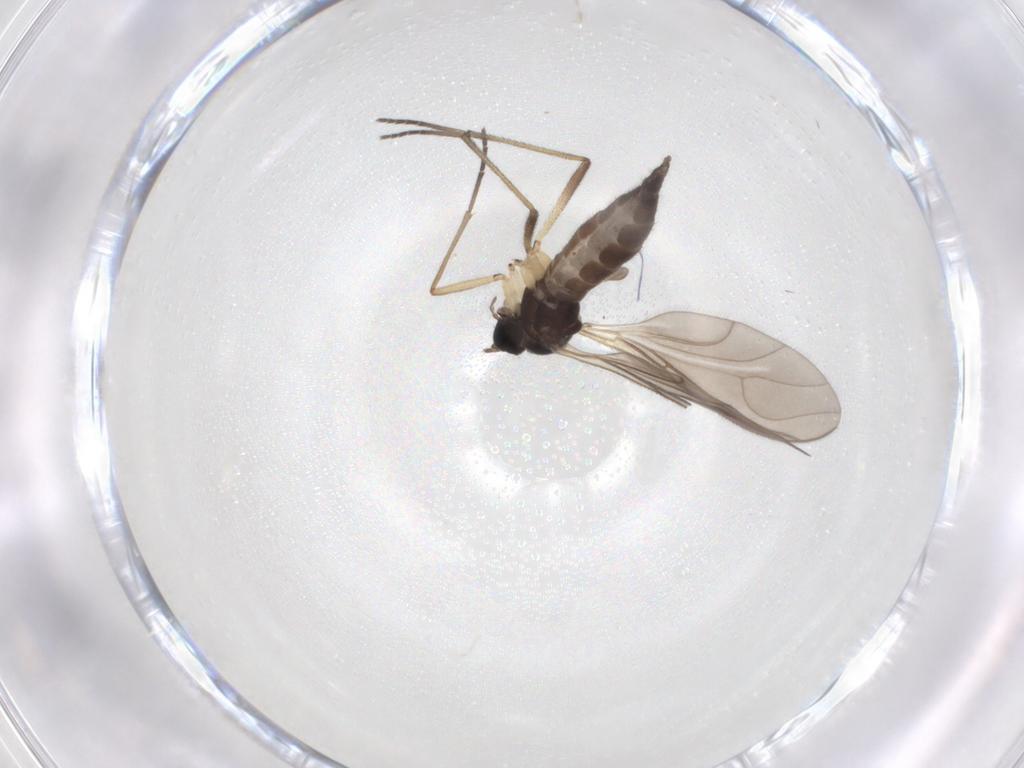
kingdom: Animalia
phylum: Arthropoda
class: Insecta
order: Diptera
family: Sciaridae
